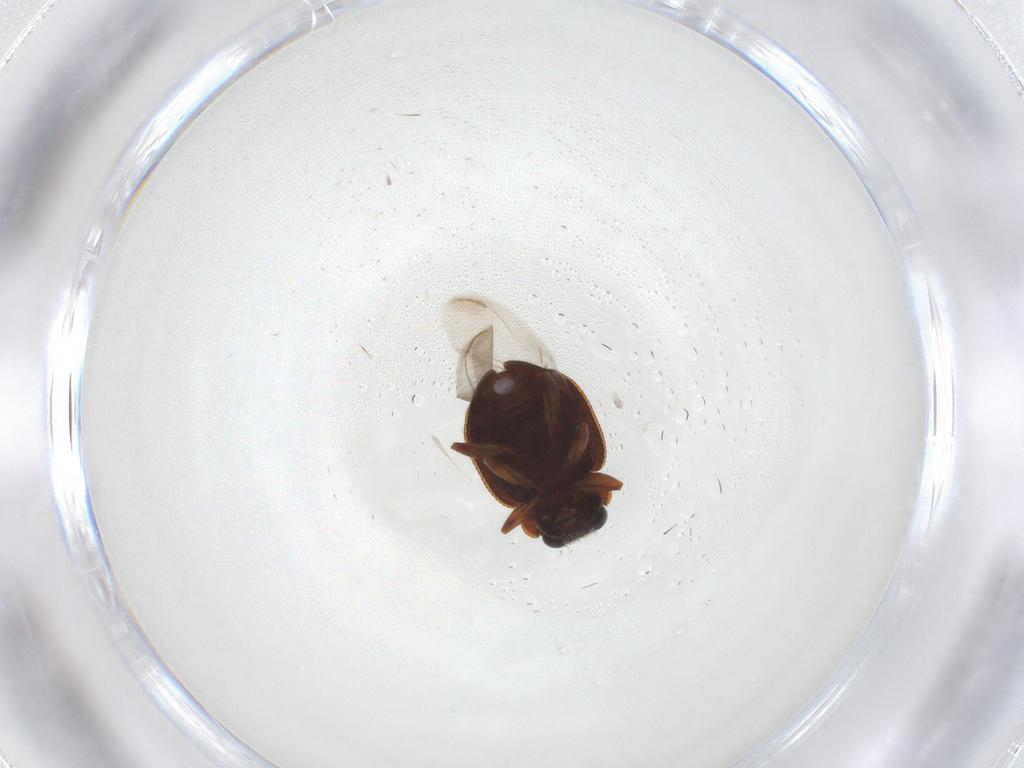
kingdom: Animalia
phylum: Arthropoda
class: Insecta
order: Coleoptera
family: Coccinellidae
